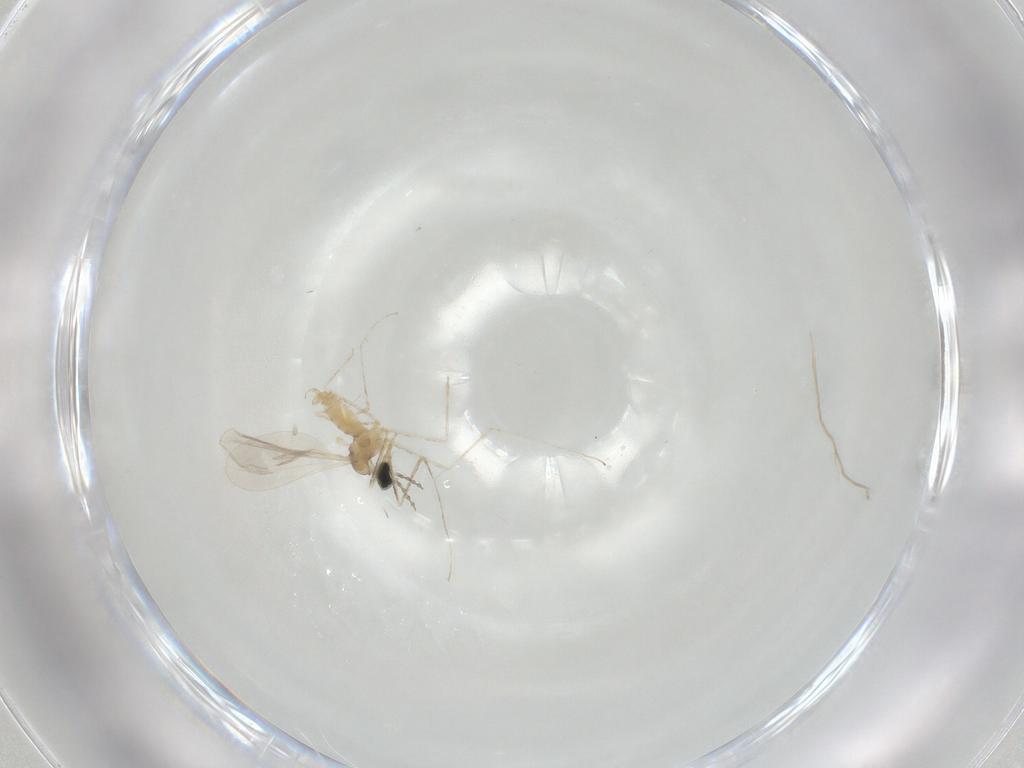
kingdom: Animalia
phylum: Arthropoda
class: Insecta
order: Diptera
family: Cecidomyiidae
